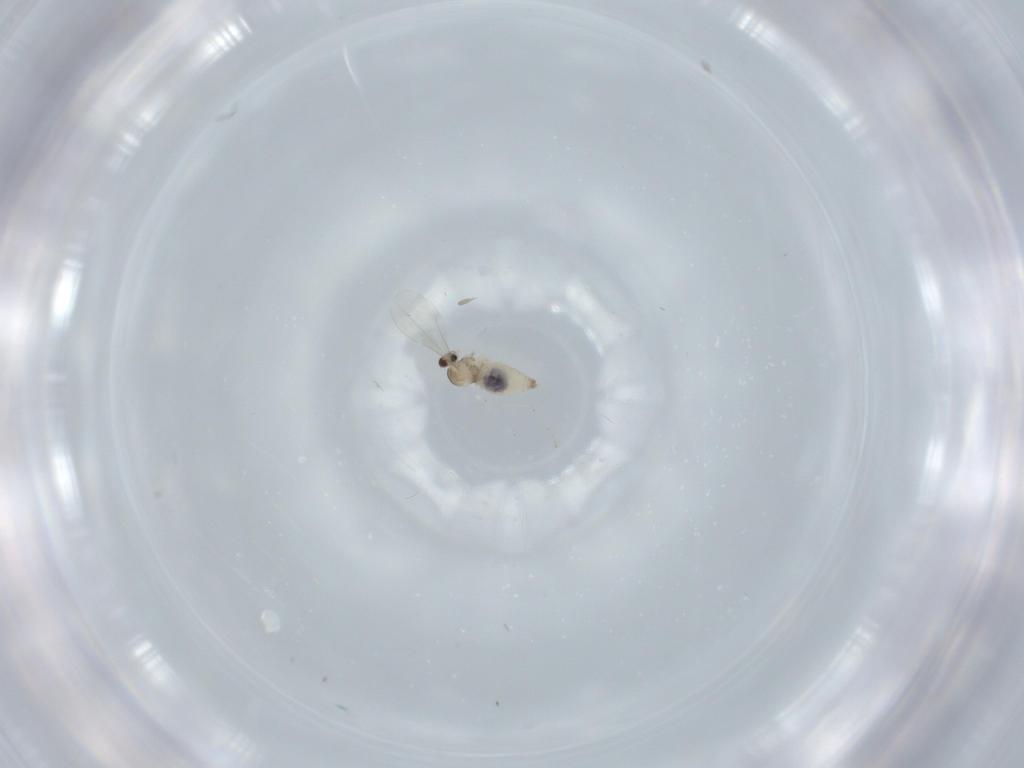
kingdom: Animalia
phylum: Arthropoda
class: Insecta
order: Diptera
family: Cecidomyiidae
